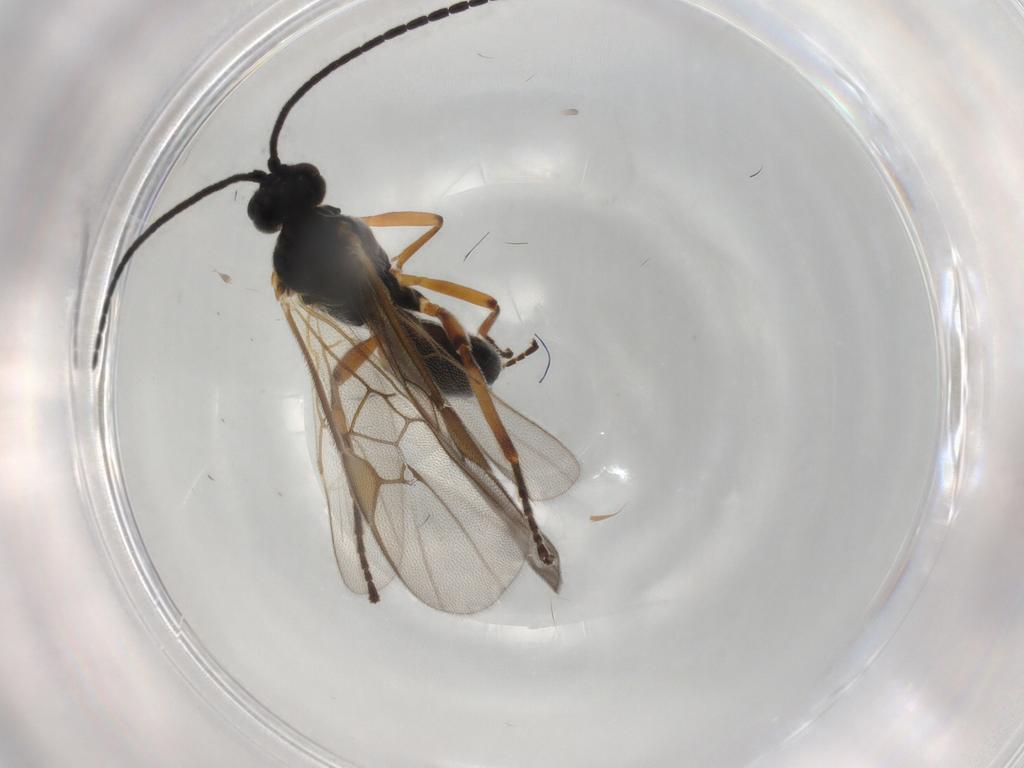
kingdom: Animalia
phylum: Arthropoda
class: Insecta
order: Hymenoptera
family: Braconidae
